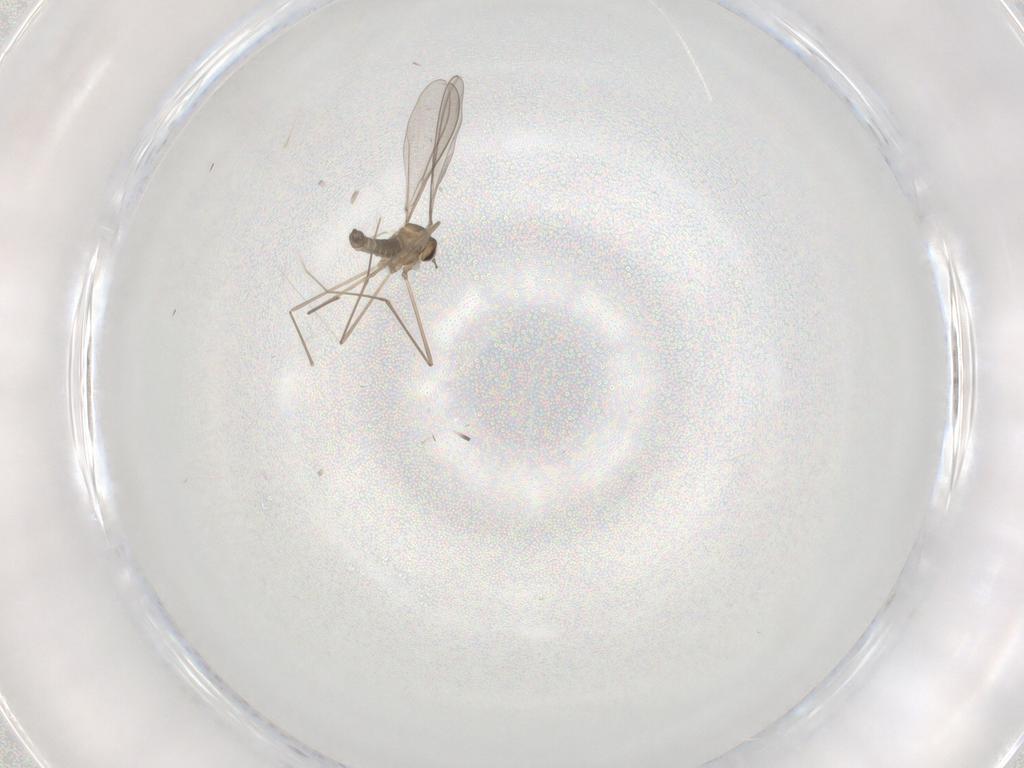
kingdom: Animalia
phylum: Arthropoda
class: Insecta
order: Diptera
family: Cecidomyiidae
